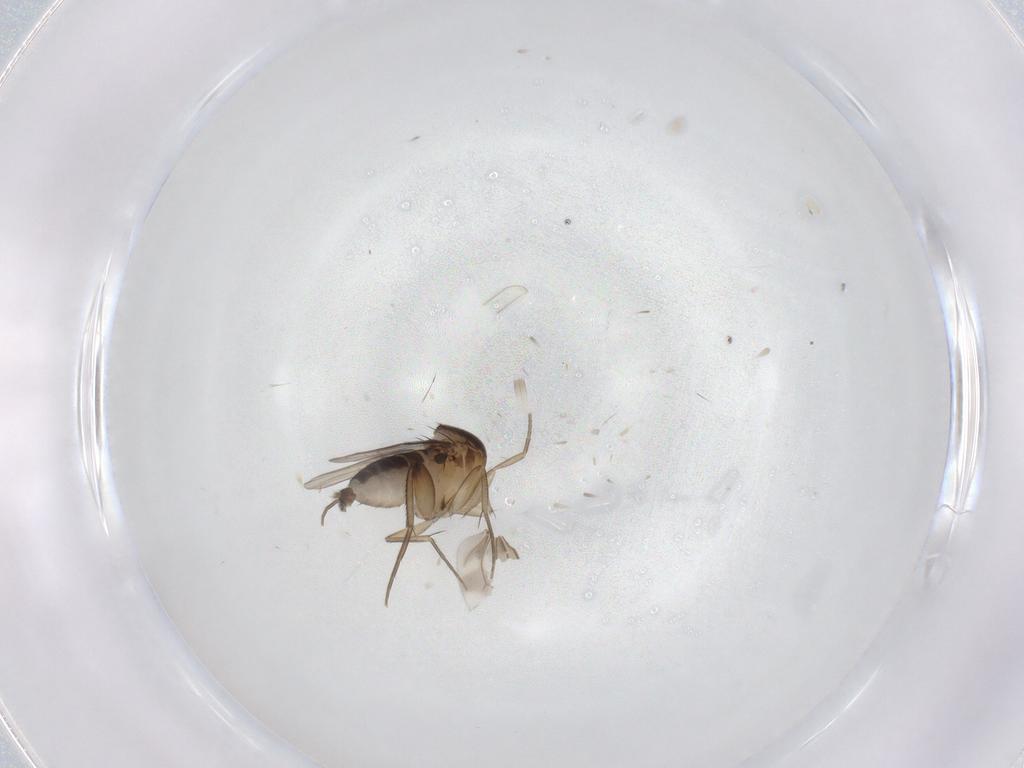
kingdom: Animalia
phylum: Arthropoda
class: Insecta
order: Diptera
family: Phoridae
